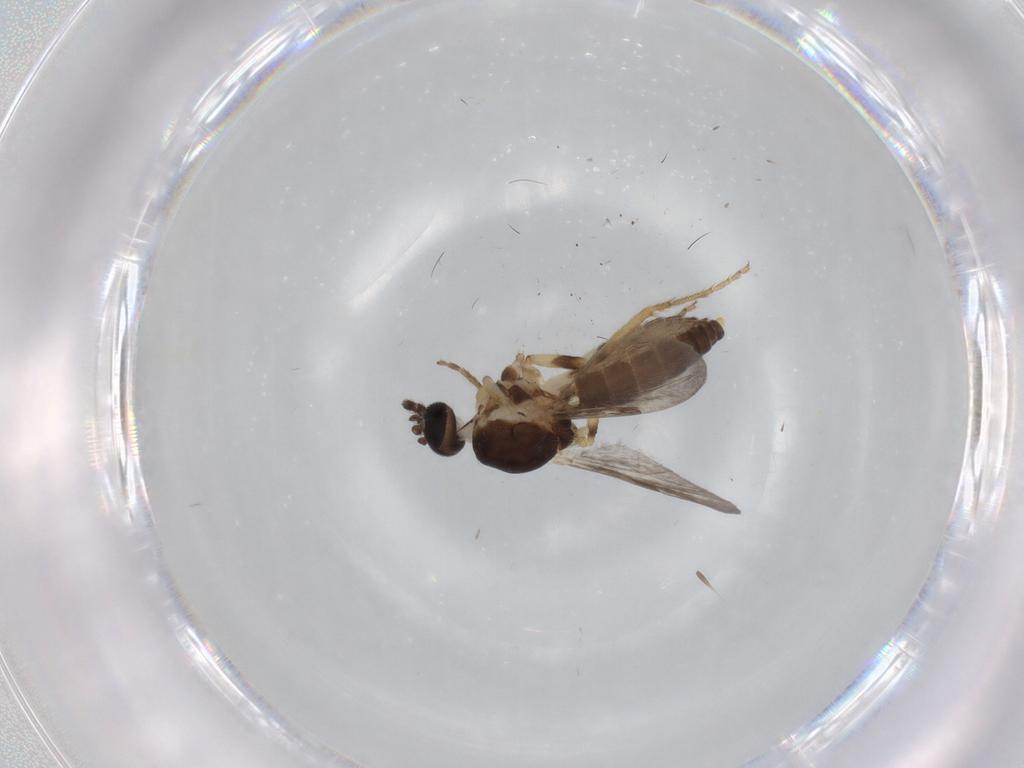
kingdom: Animalia
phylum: Arthropoda
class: Insecta
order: Diptera
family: Ceratopogonidae
